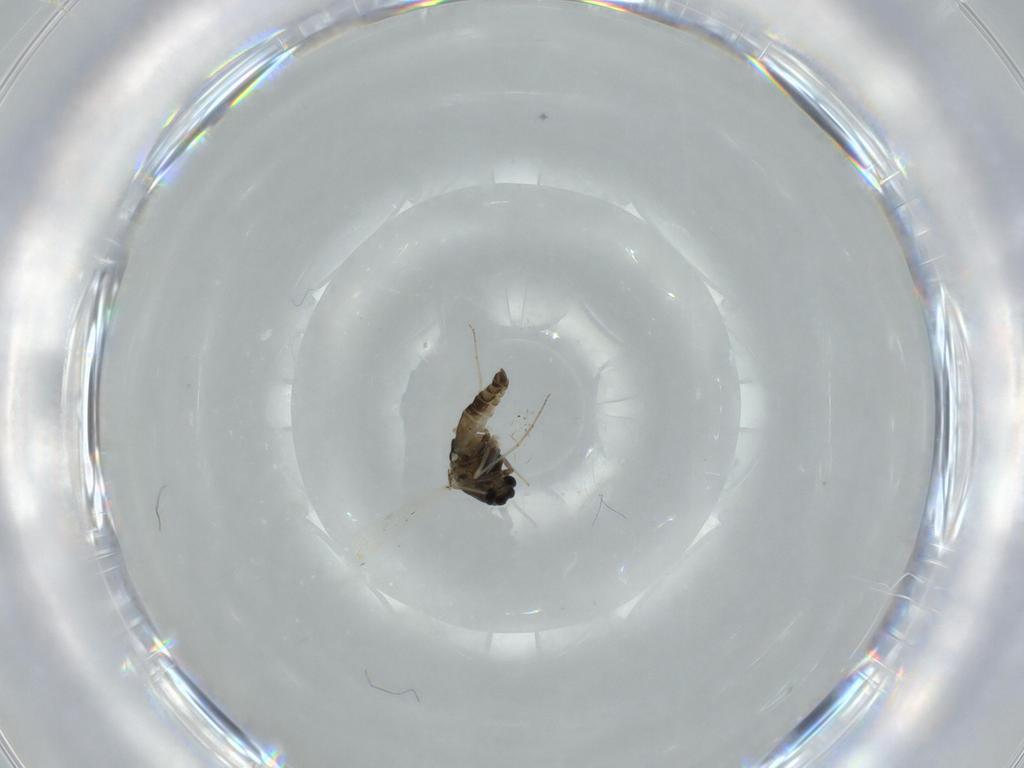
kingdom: Animalia
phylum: Arthropoda
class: Insecta
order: Diptera
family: Chironomidae
